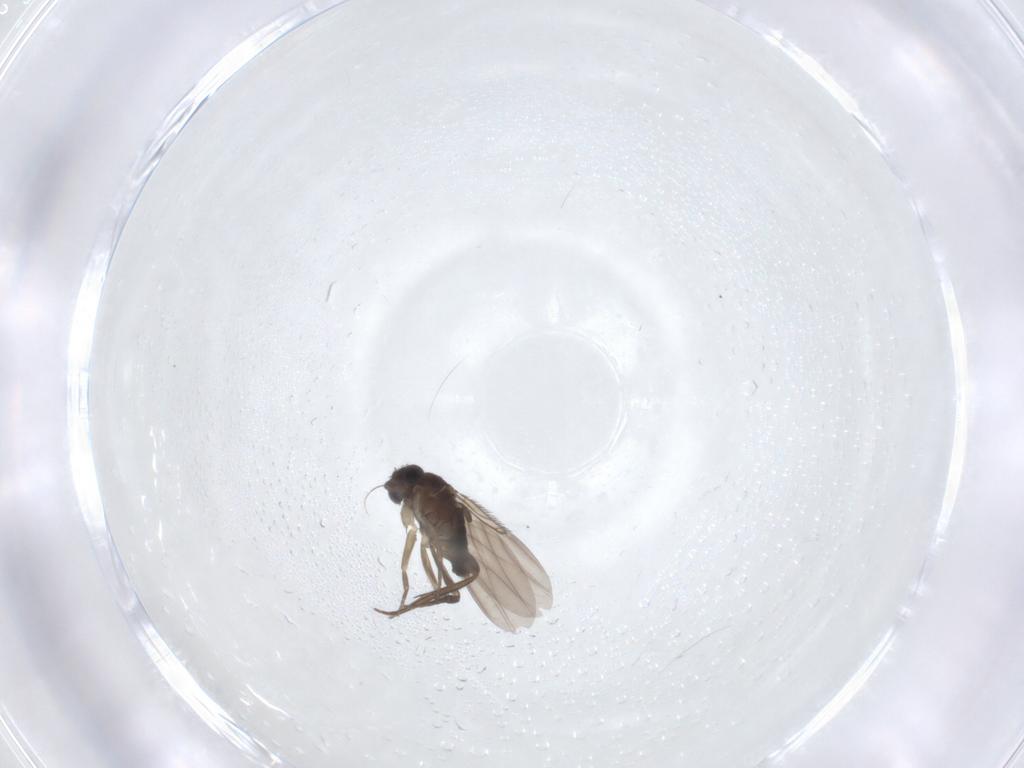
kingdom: Animalia
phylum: Arthropoda
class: Insecta
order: Diptera
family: Phoridae
